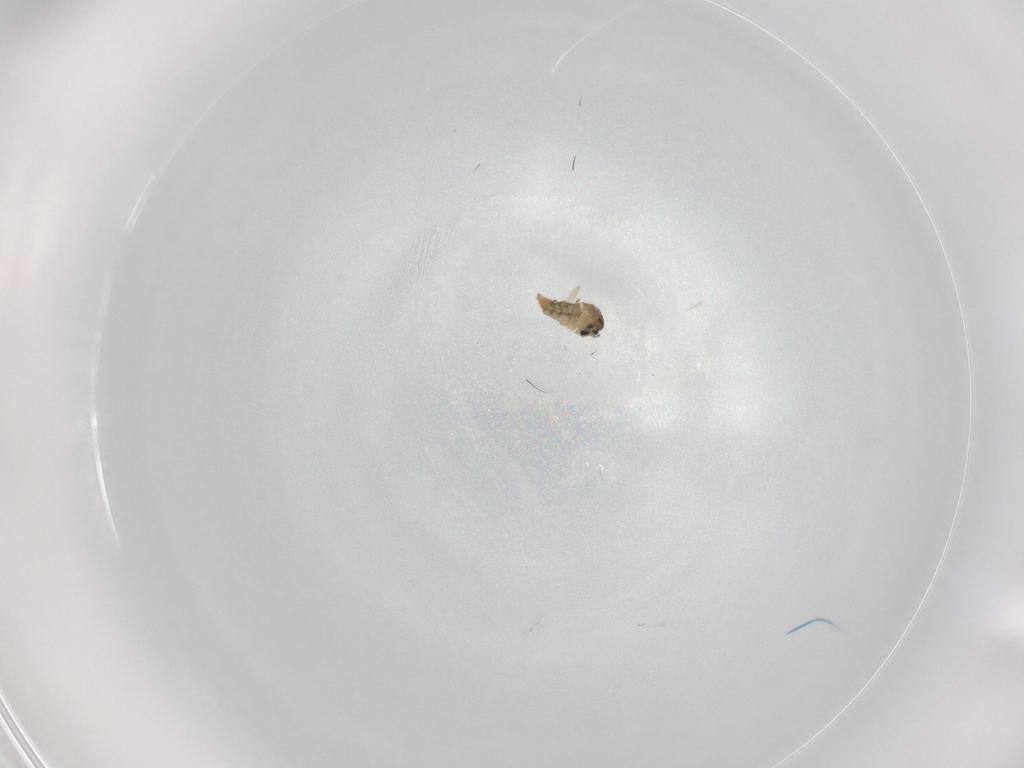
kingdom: Animalia
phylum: Arthropoda
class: Insecta
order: Diptera
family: Cecidomyiidae
